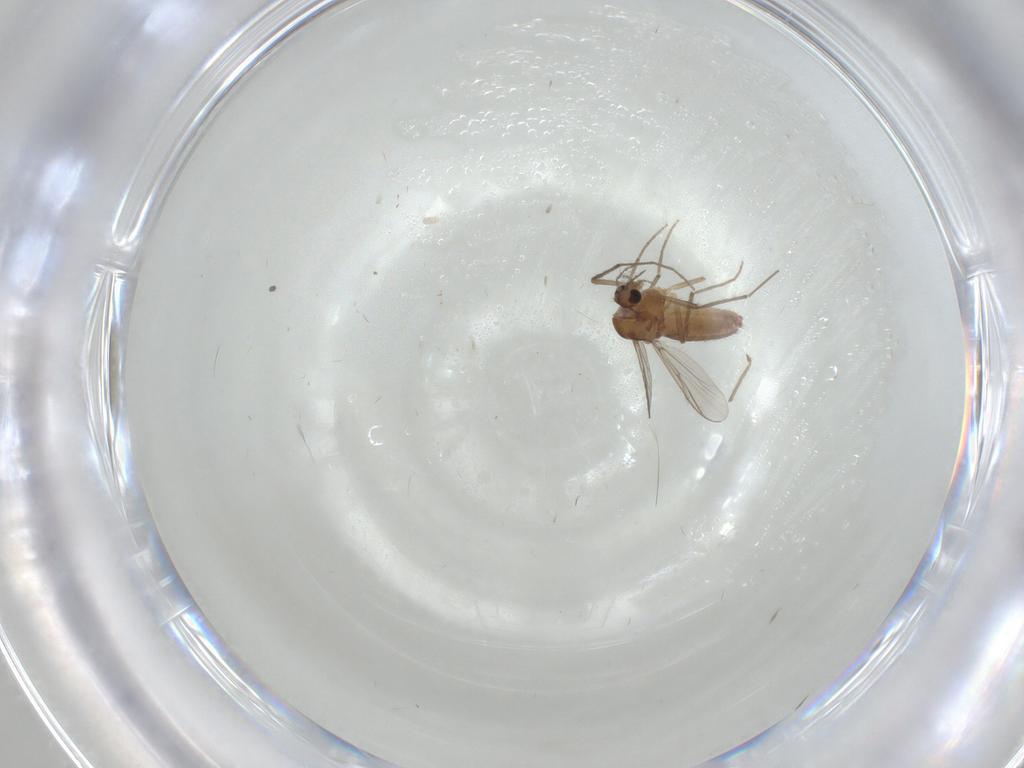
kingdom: Animalia
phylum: Arthropoda
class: Insecta
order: Diptera
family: Chironomidae
